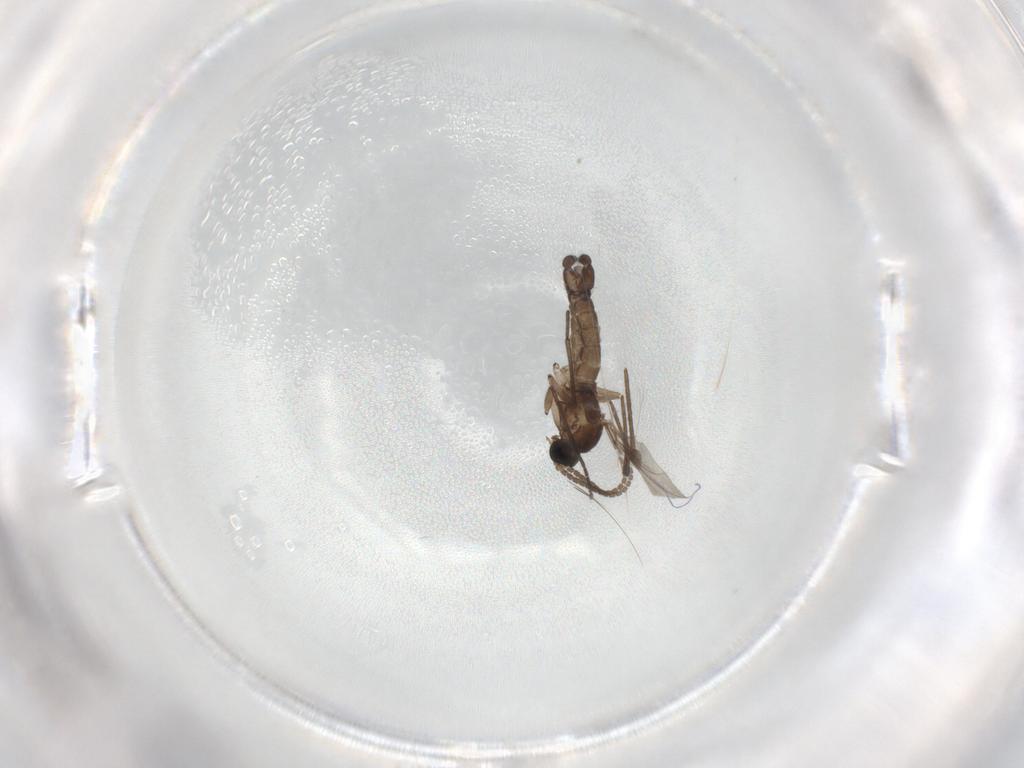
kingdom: Animalia
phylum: Arthropoda
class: Insecta
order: Diptera
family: Sciaridae
